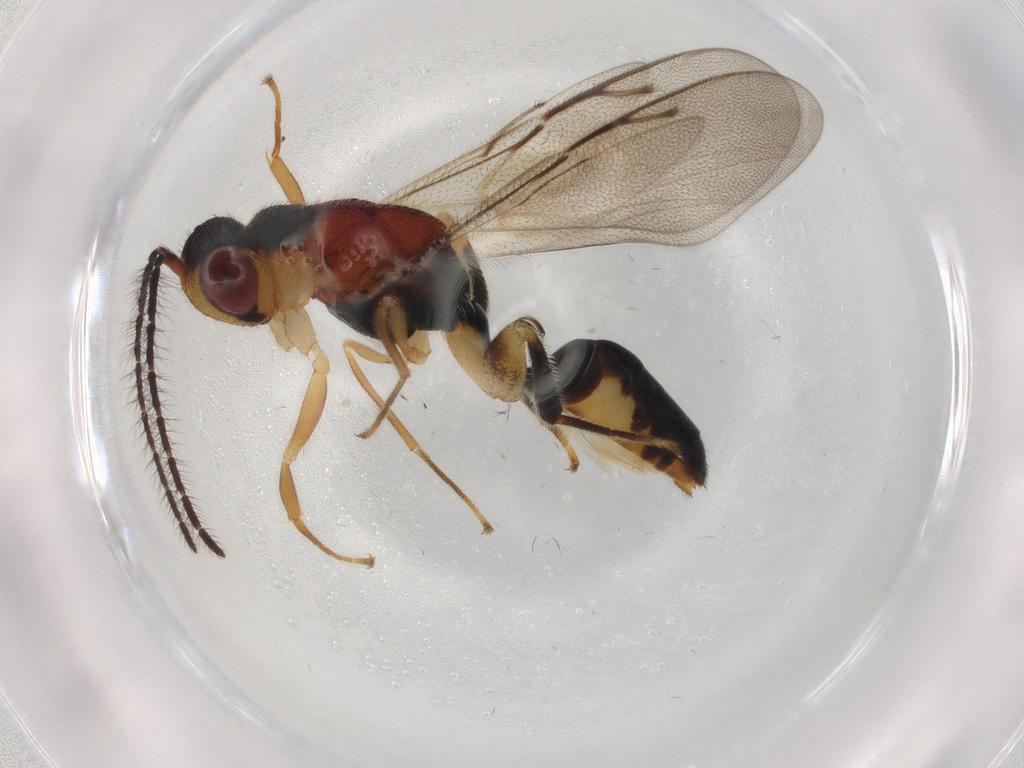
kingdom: Animalia
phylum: Arthropoda
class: Insecta
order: Hymenoptera
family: Eurytomidae
